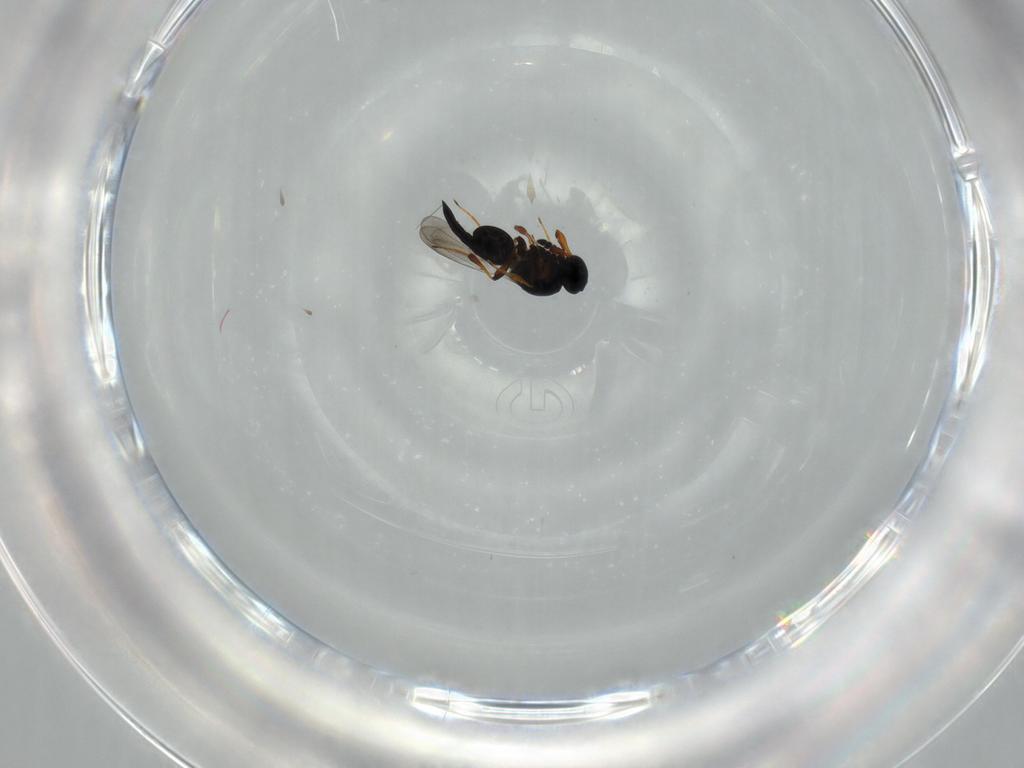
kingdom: Animalia
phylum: Arthropoda
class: Insecta
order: Hymenoptera
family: Platygastridae
